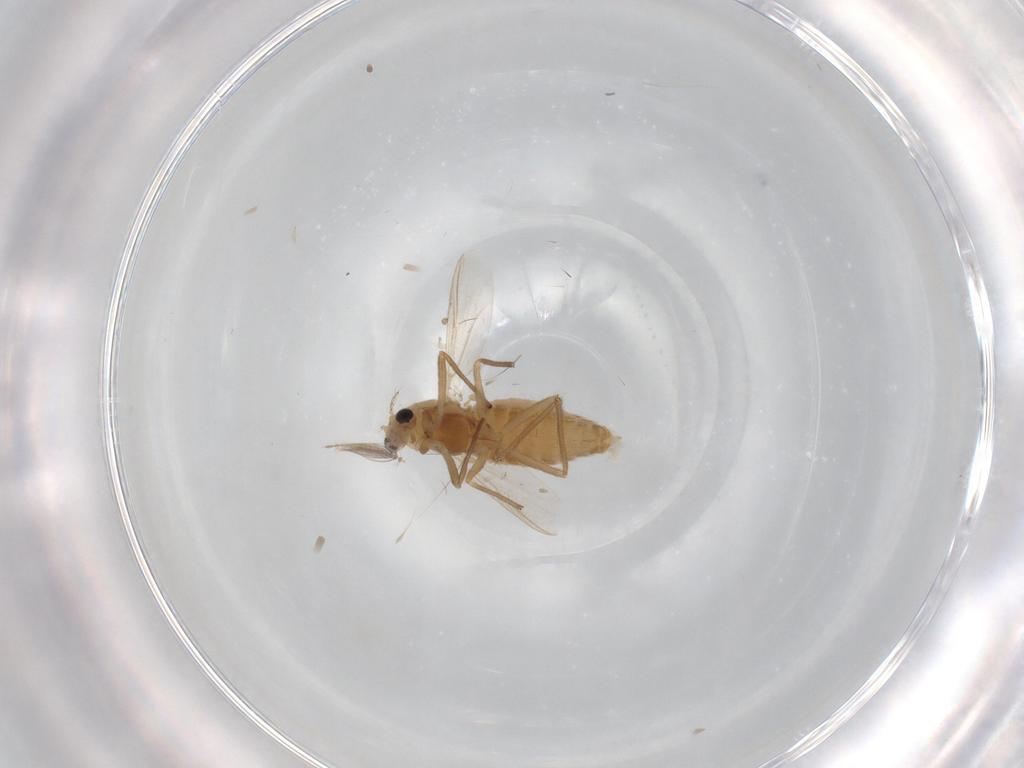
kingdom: Animalia
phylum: Arthropoda
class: Insecta
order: Diptera
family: Chironomidae
